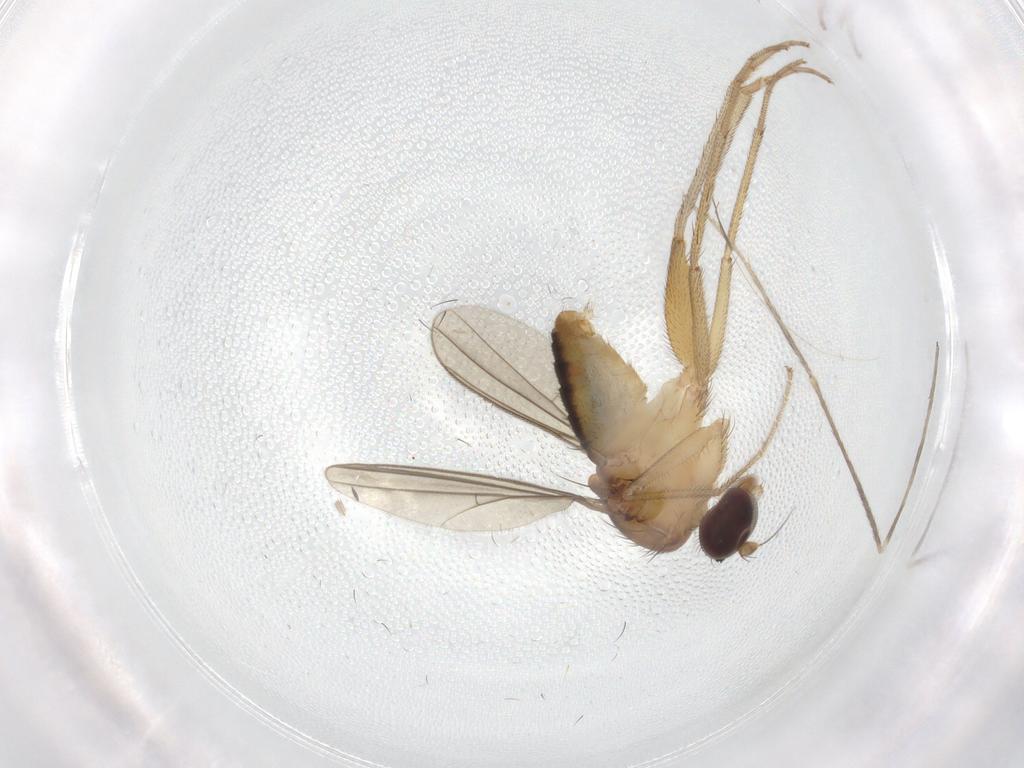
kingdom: Animalia
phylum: Arthropoda
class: Insecta
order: Diptera
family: Dolichopodidae
